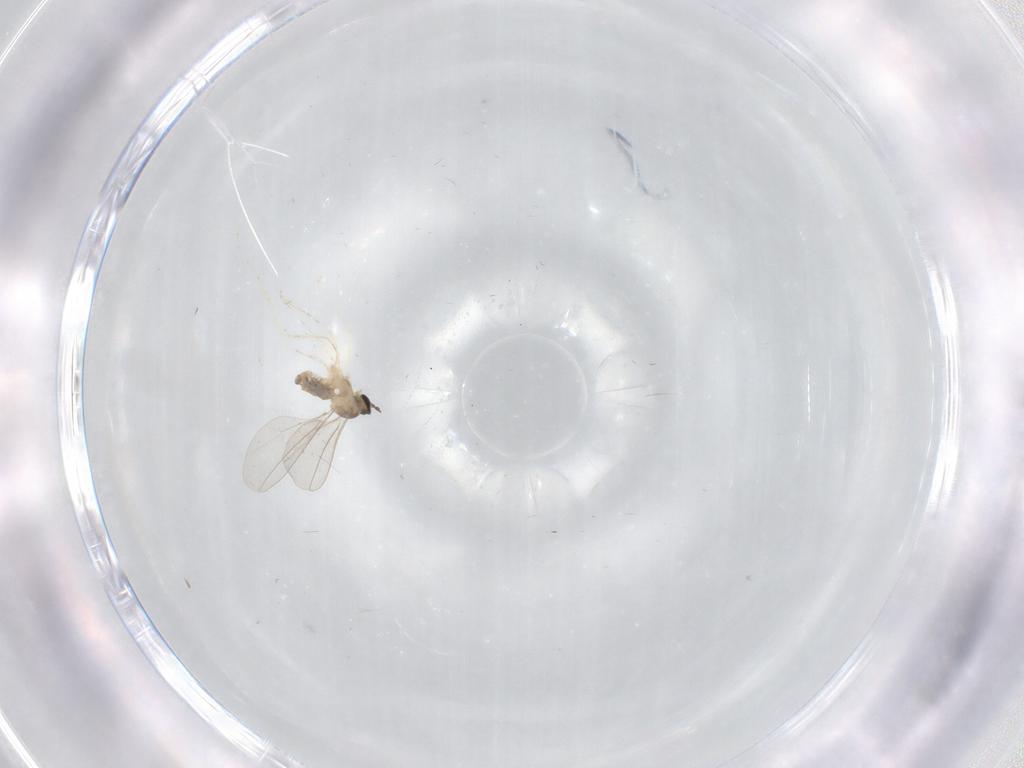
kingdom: Animalia
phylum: Arthropoda
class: Insecta
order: Diptera
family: Cecidomyiidae
